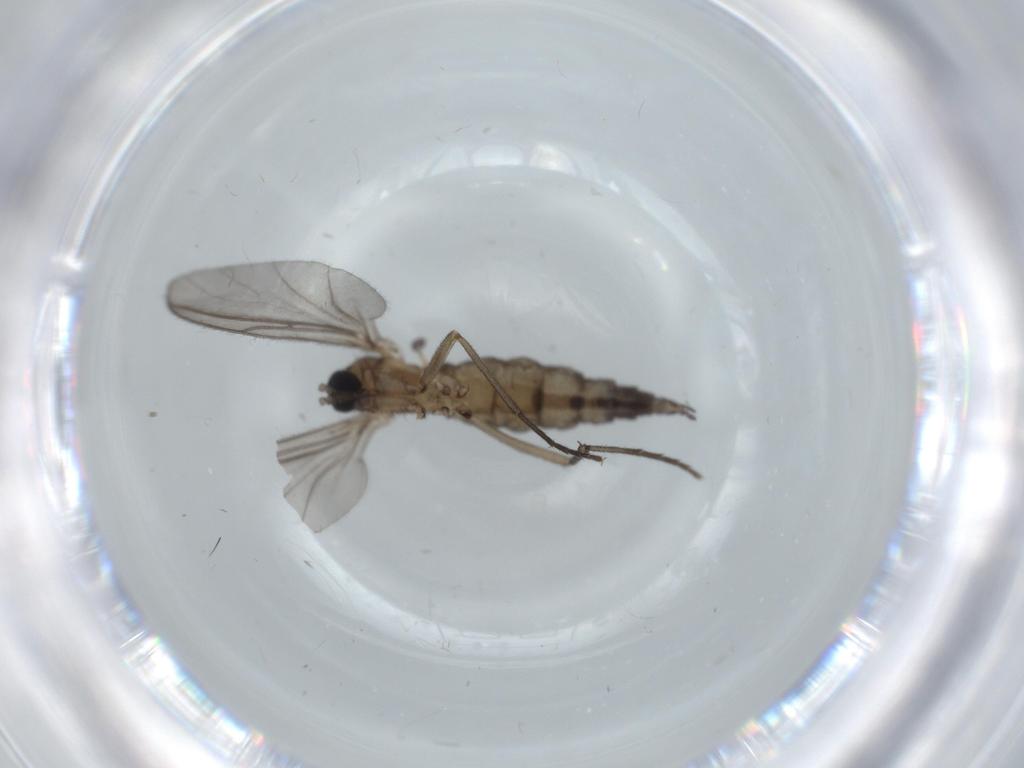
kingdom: Animalia
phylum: Arthropoda
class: Insecta
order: Diptera
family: Sciaridae
